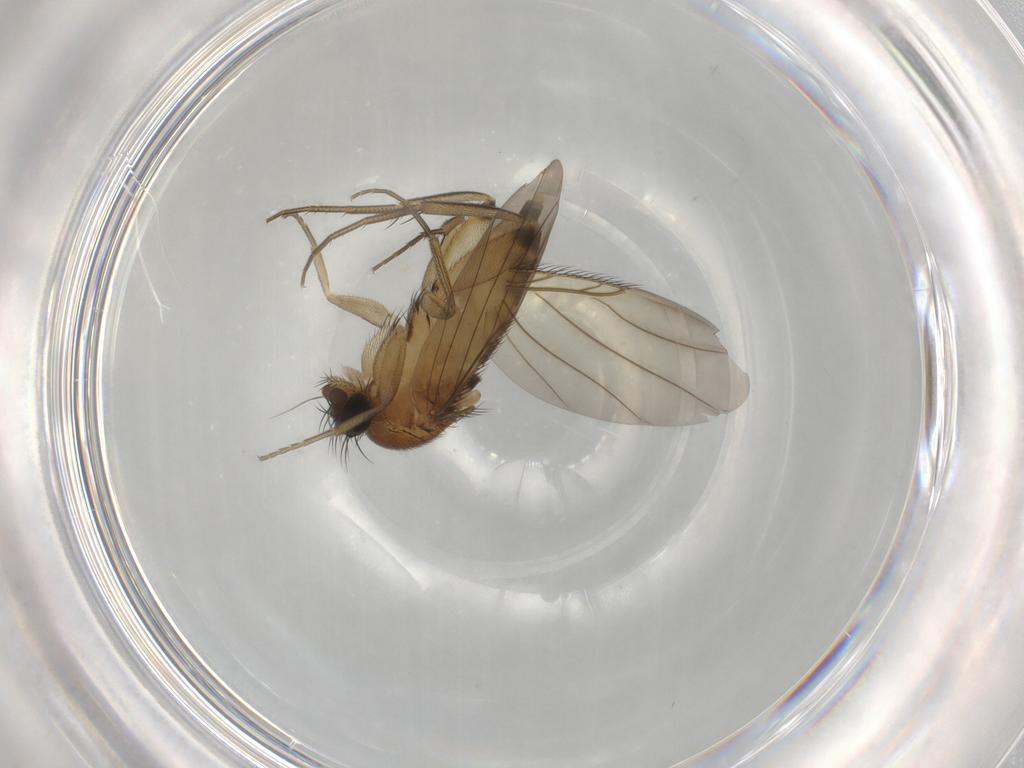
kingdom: Animalia
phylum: Arthropoda
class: Insecta
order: Diptera
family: Phoridae
